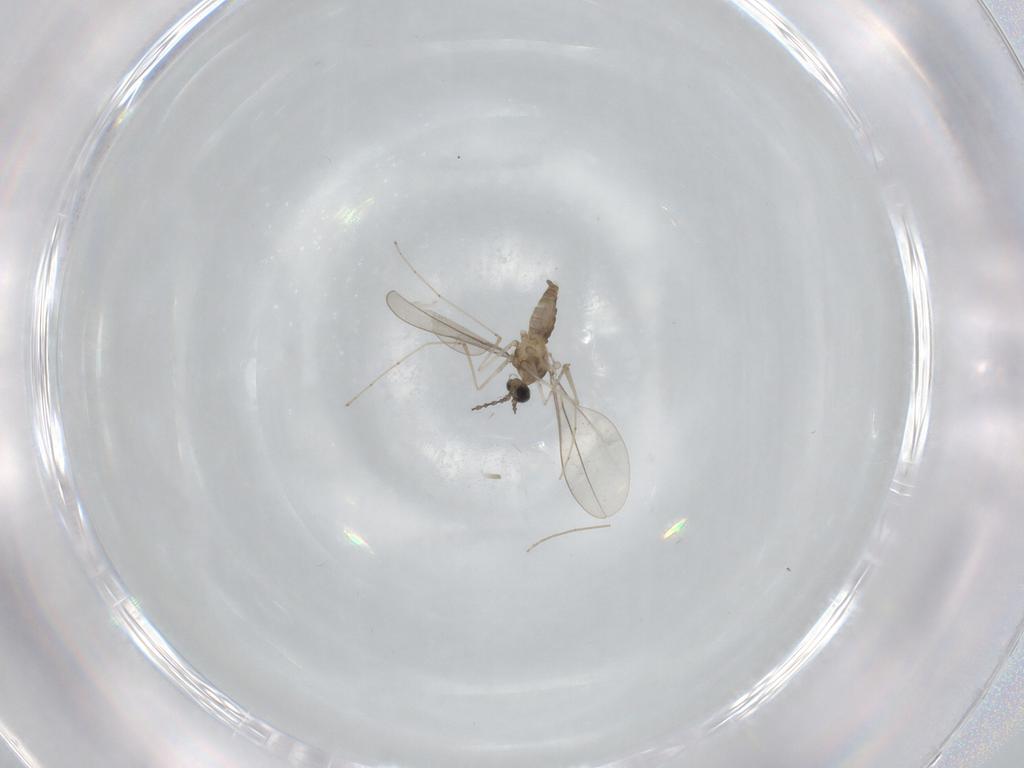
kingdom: Animalia
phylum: Arthropoda
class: Insecta
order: Diptera
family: Cecidomyiidae
